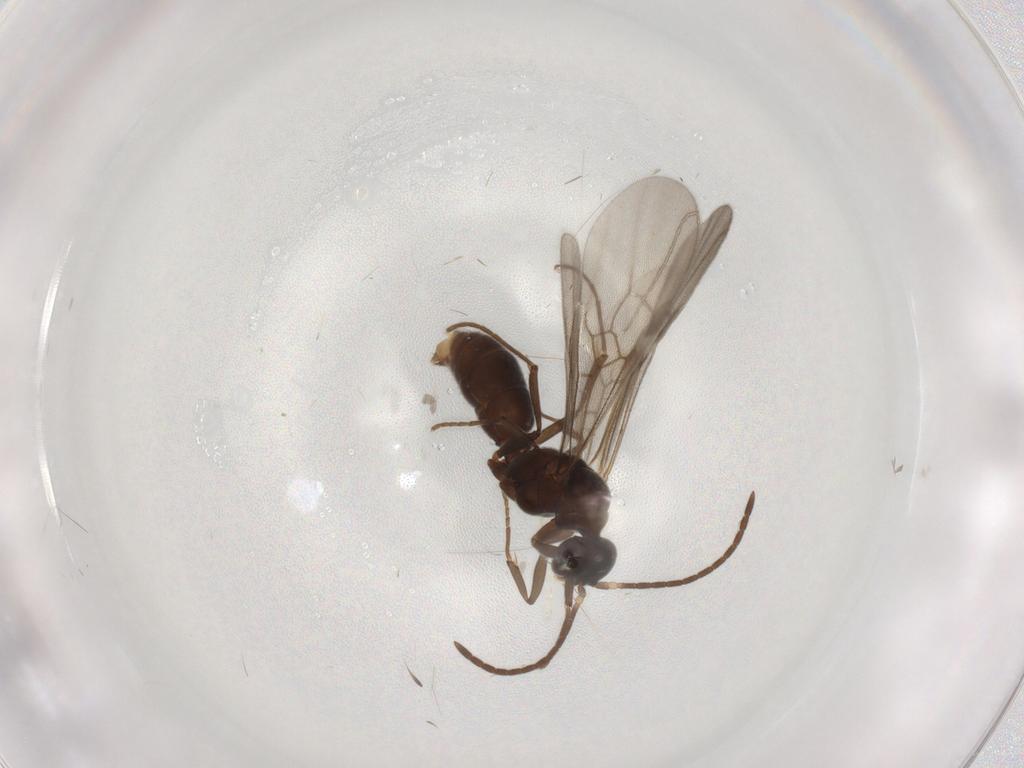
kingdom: Animalia
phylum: Arthropoda
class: Insecta
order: Hymenoptera
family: Formicidae
